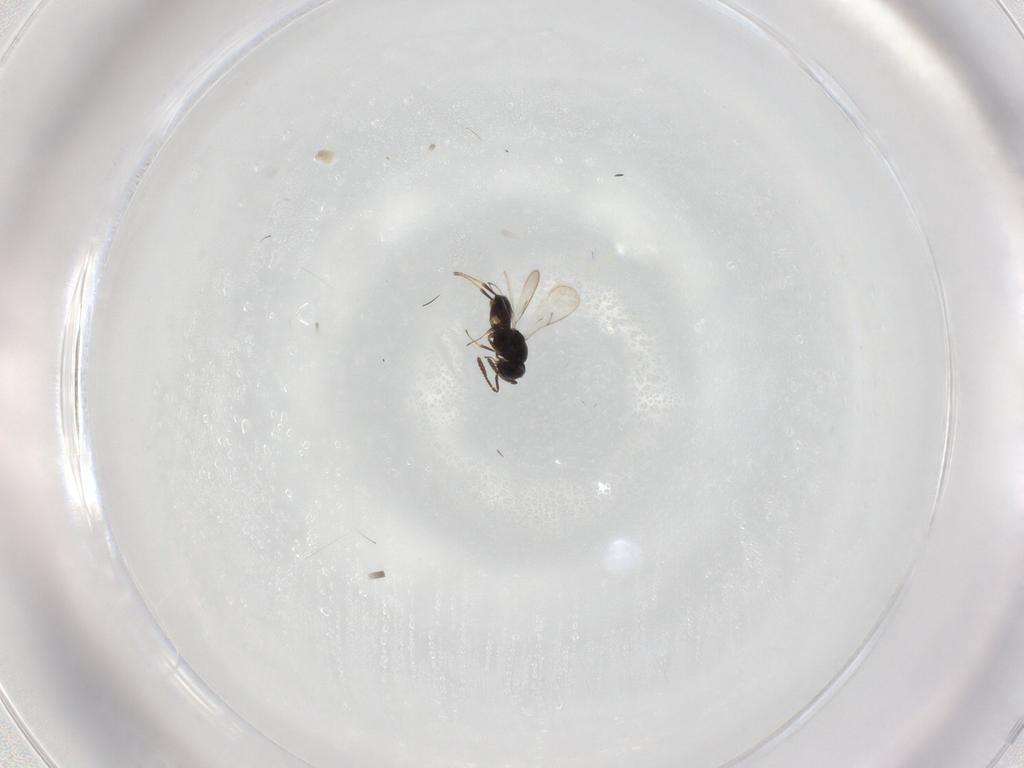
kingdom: Animalia
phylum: Arthropoda
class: Insecta
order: Hymenoptera
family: Scelionidae
